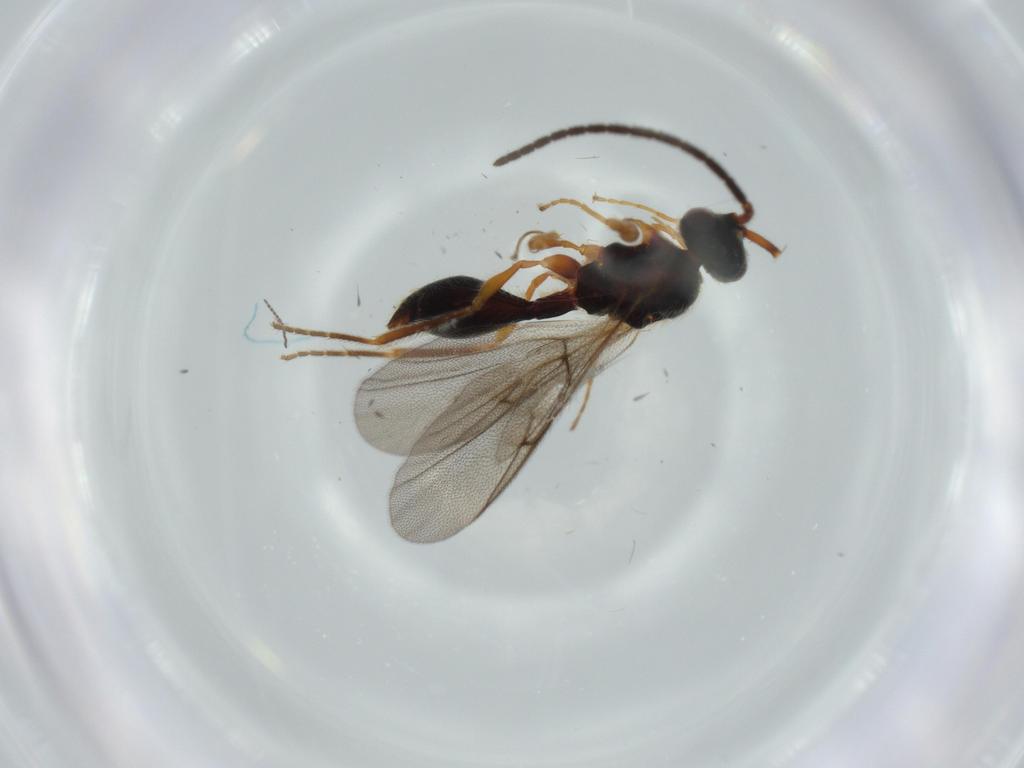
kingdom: Animalia
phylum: Arthropoda
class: Insecta
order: Hymenoptera
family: Diapriidae
